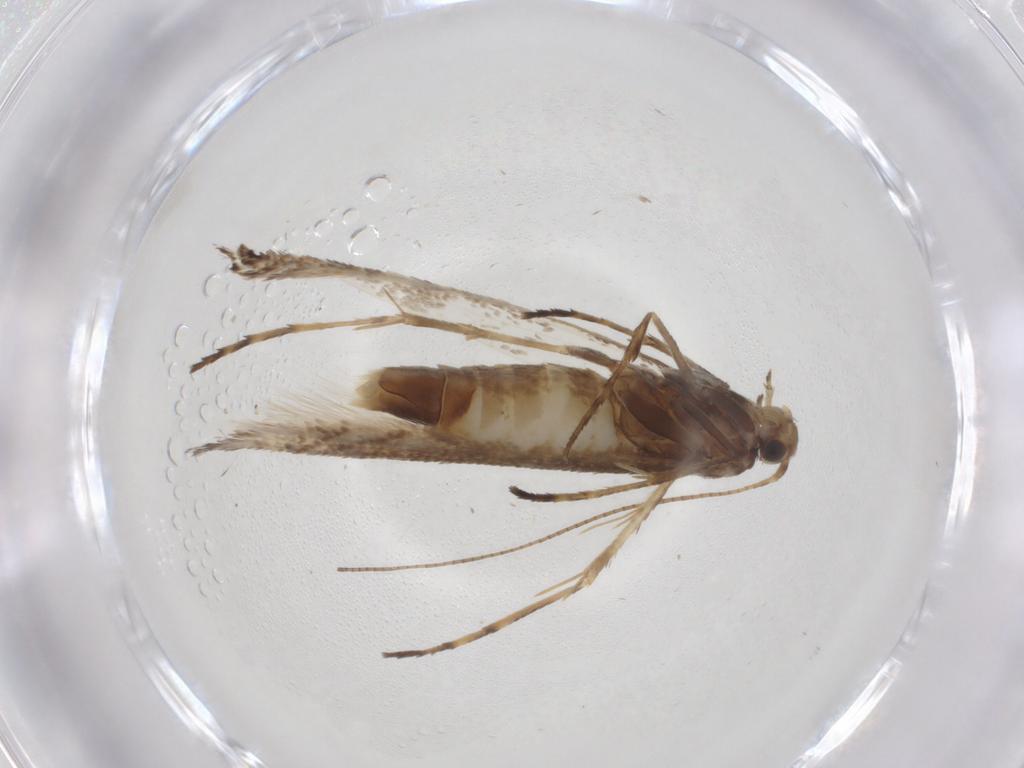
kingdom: Animalia
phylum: Arthropoda
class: Insecta
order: Lepidoptera
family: Gracillariidae
